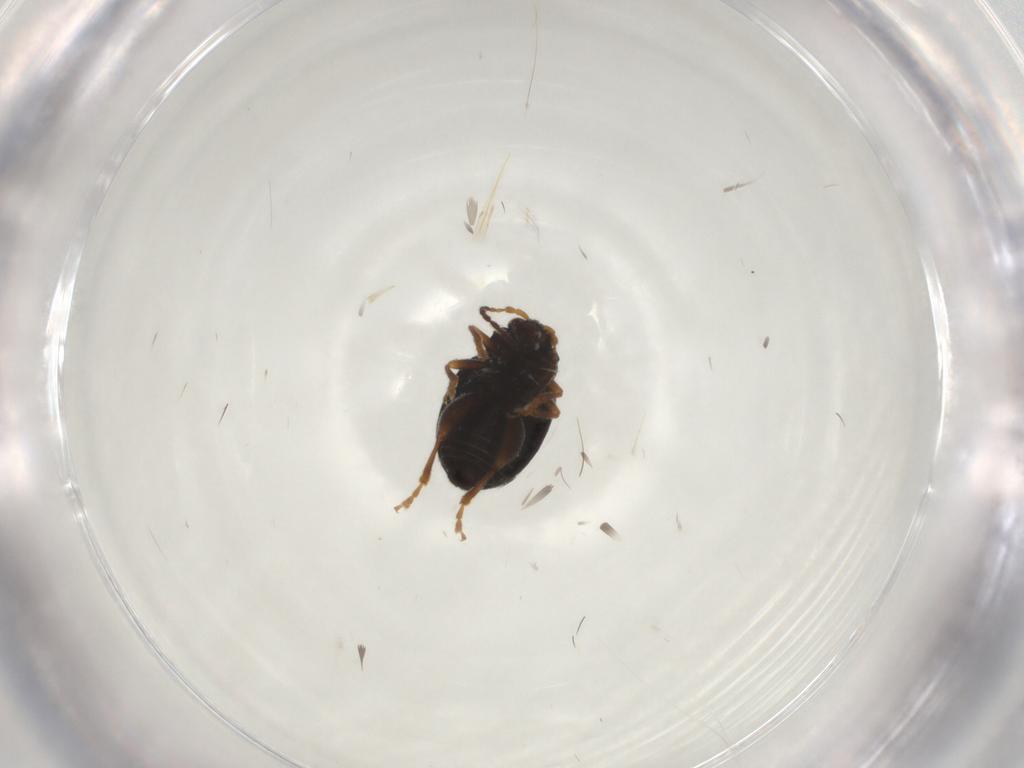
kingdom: Animalia
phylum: Arthropoda
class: Insecta
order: Coleoptera
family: Chrysomelidae
